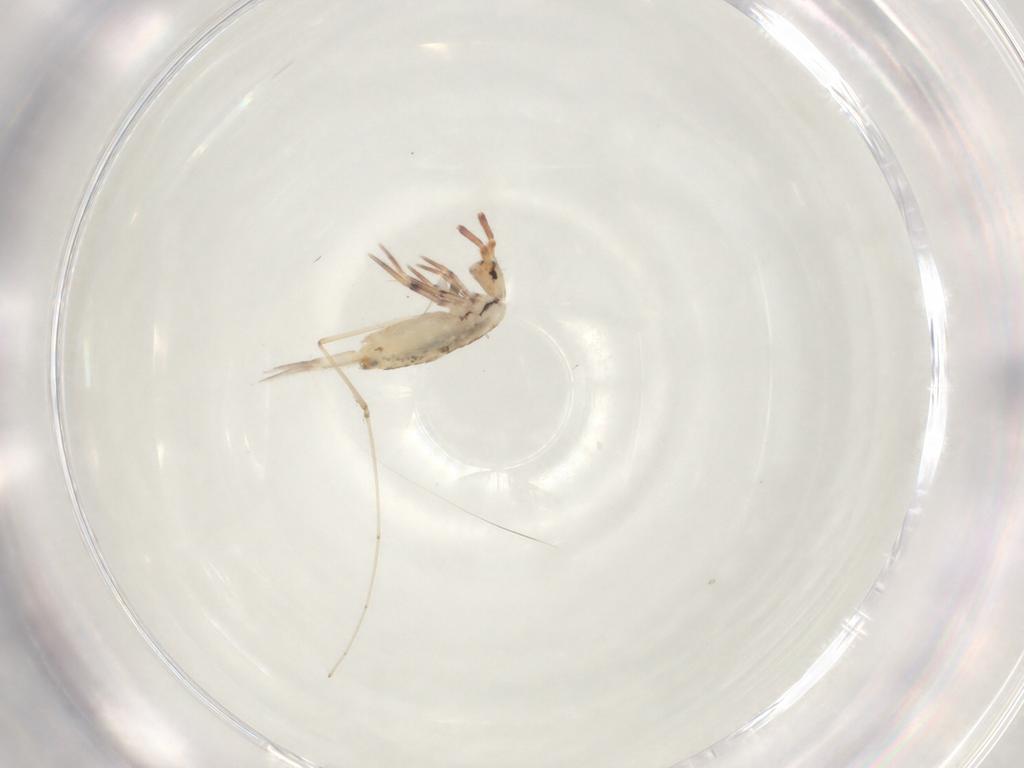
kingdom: Animalia
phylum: Arthropoda
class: Collembola
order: Entomobryomorpha
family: Entomobryidae
